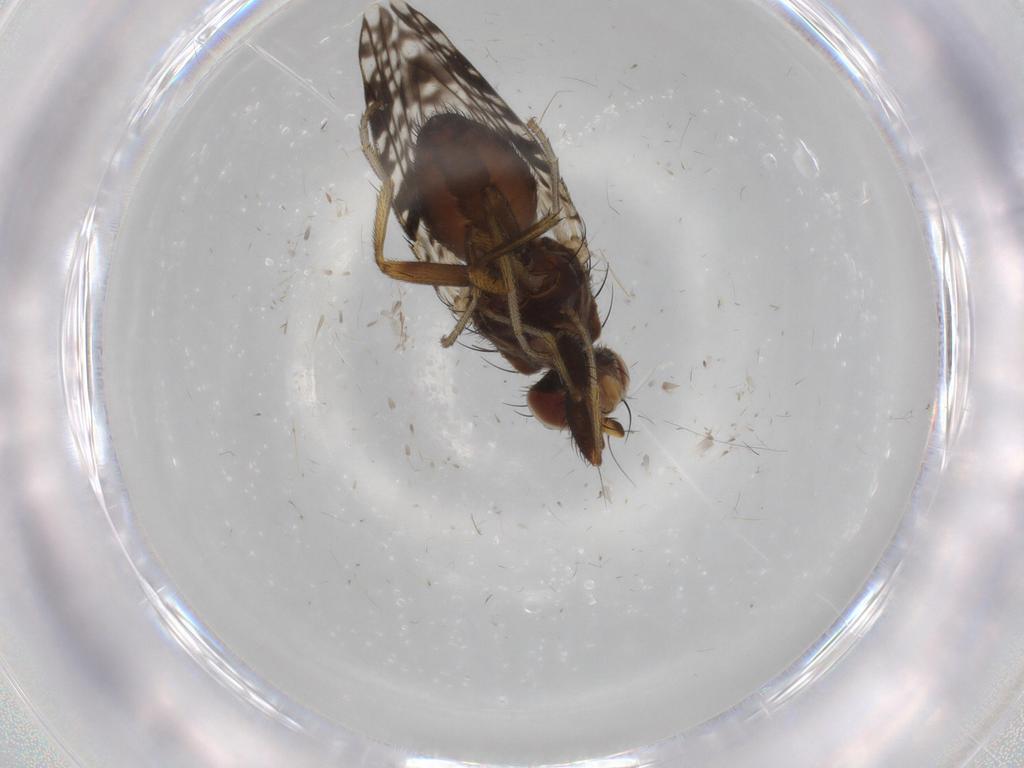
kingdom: Animalia
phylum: Arthropoda
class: Insecta
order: Diptera
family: Tephritidae
